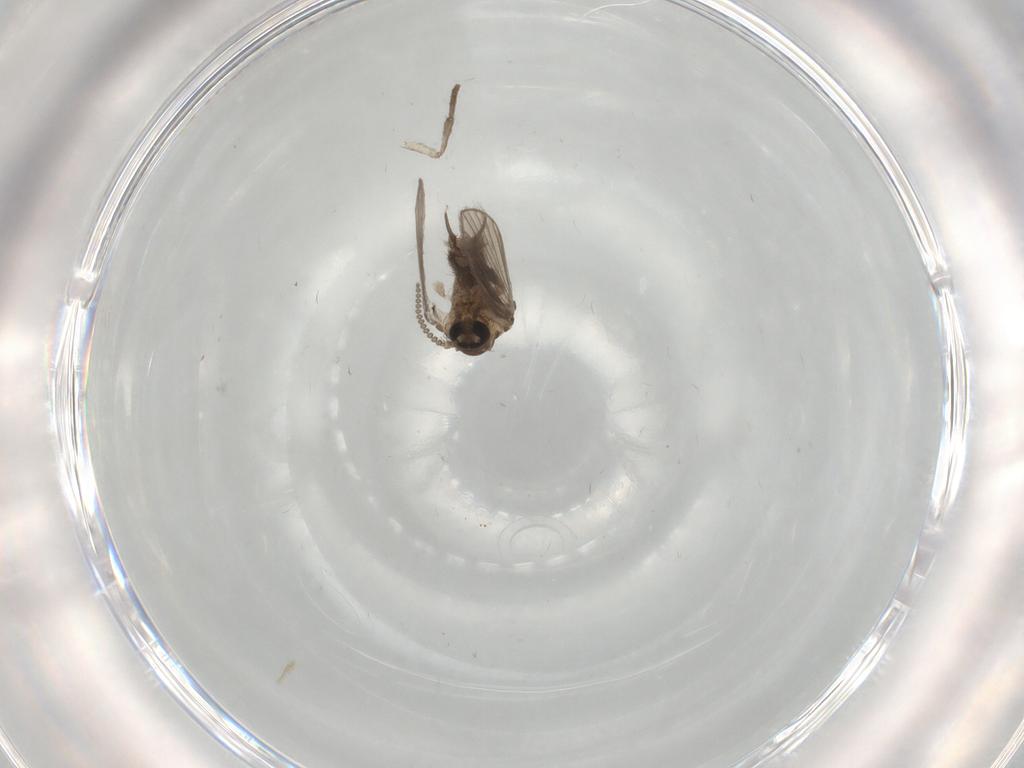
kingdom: Animalia
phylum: Arthropoda
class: Insecta
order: Diptera
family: Psychodidae
